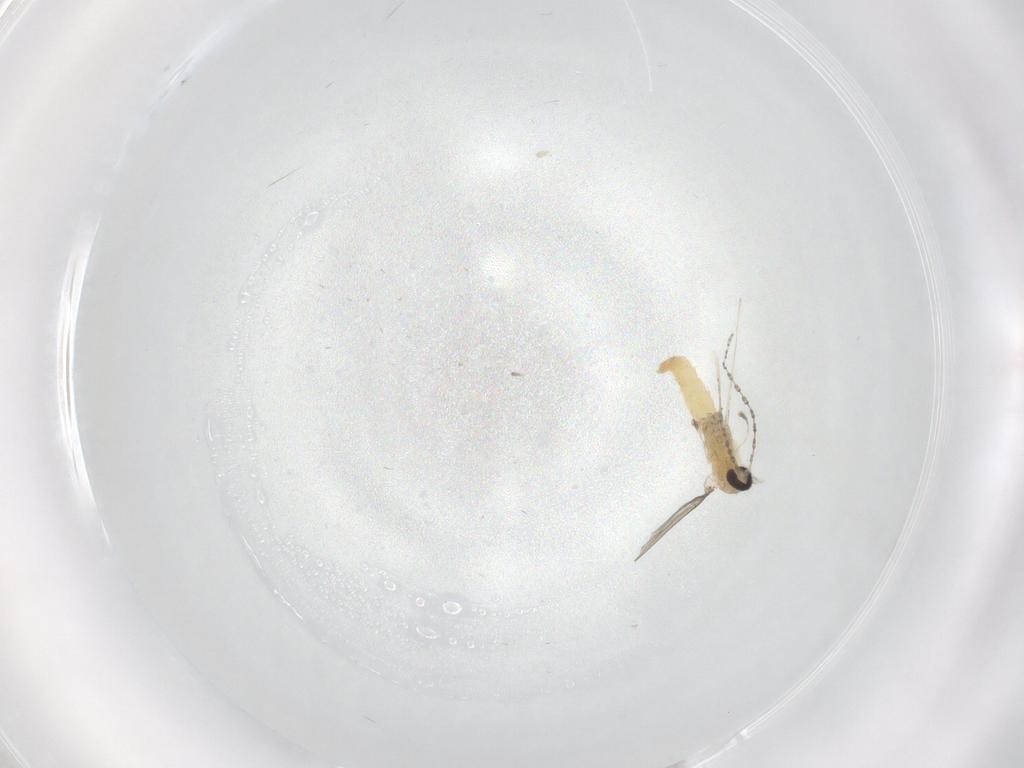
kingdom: Animalia
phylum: Arthropoda
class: Insecta
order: Diptera
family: Cecidomyiidae
